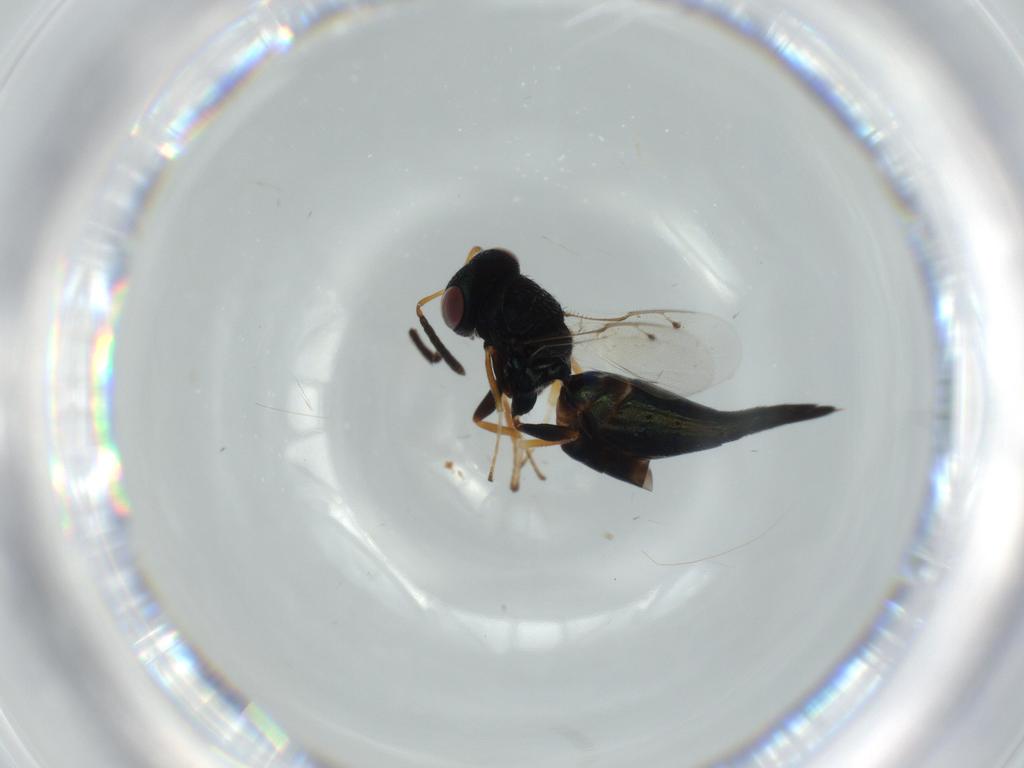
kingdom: Animalia
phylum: Arthropoda
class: Insecta
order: Hymenoptera
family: Pteromalidae
